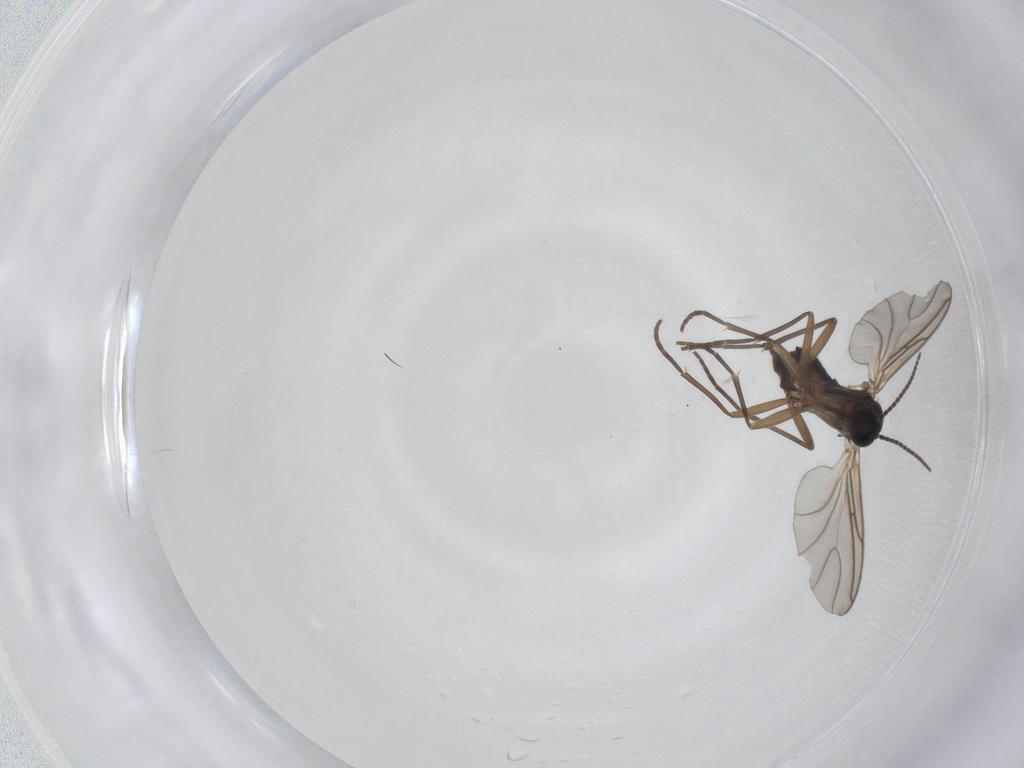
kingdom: Animalia
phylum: Arthropoda
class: Insecta
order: Diptera
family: Sciaridae
